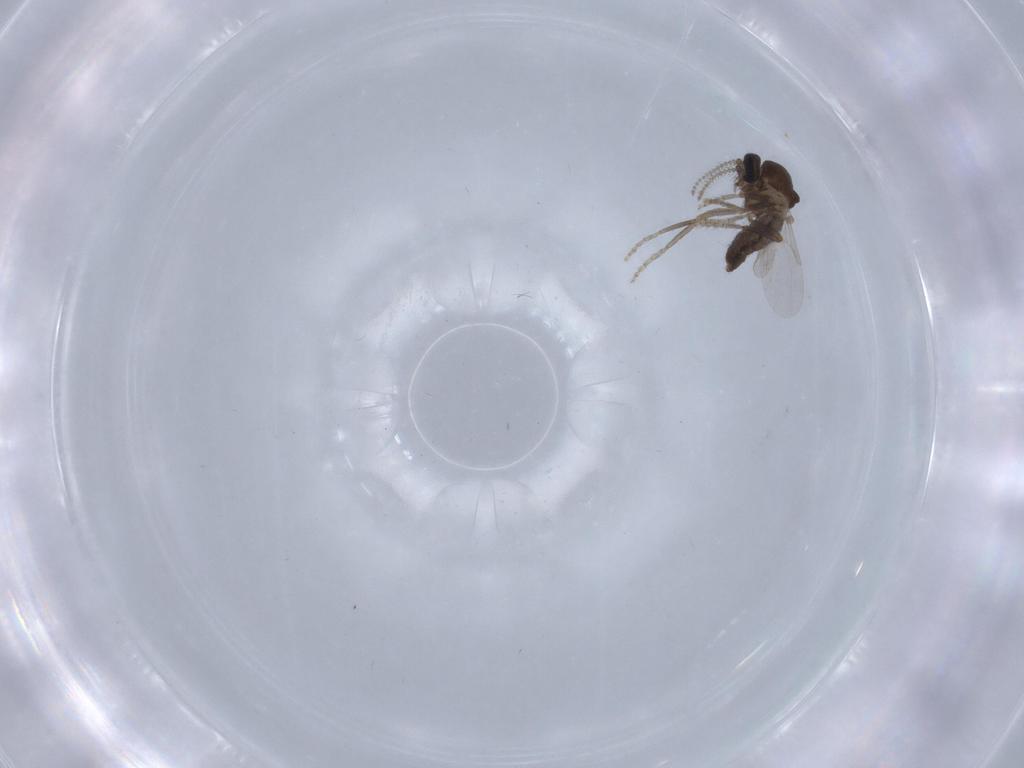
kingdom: Animalia
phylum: Arthropoda
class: Insecta
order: Diptera
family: Ceratopogonidae
